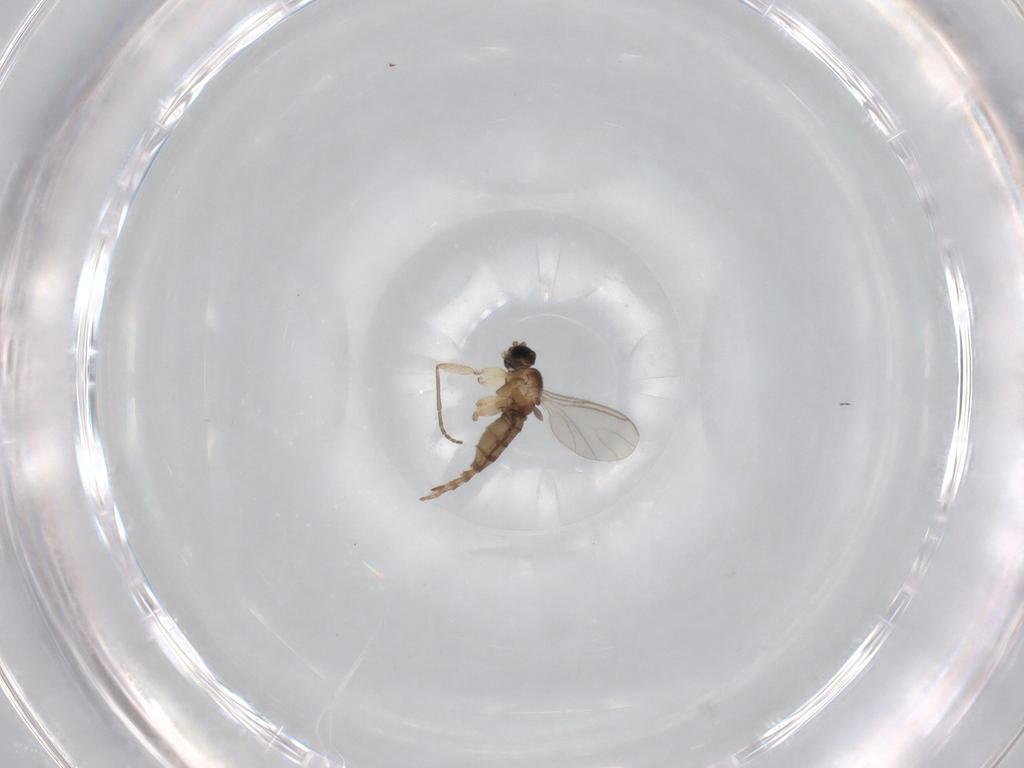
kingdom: Animalia
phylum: Arthropoda
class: Insecta
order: Diptera
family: Sciaridae
